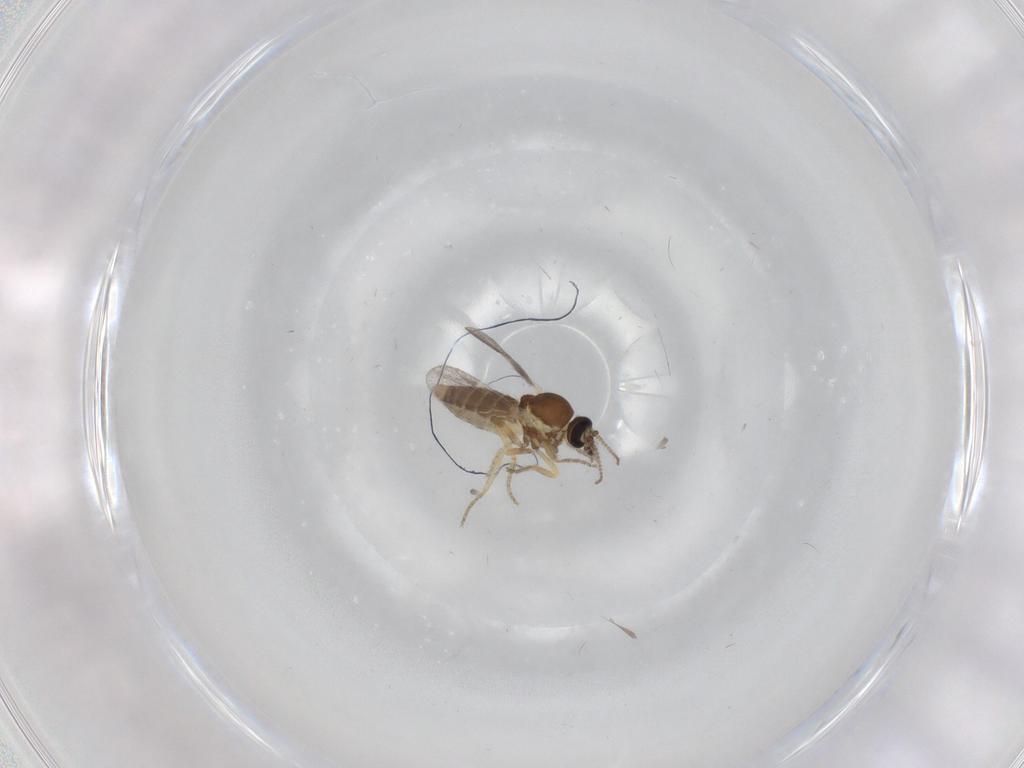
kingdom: Animalia
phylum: Arthropoda
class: Insecta
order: Diptera
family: Ceratopogonidae
